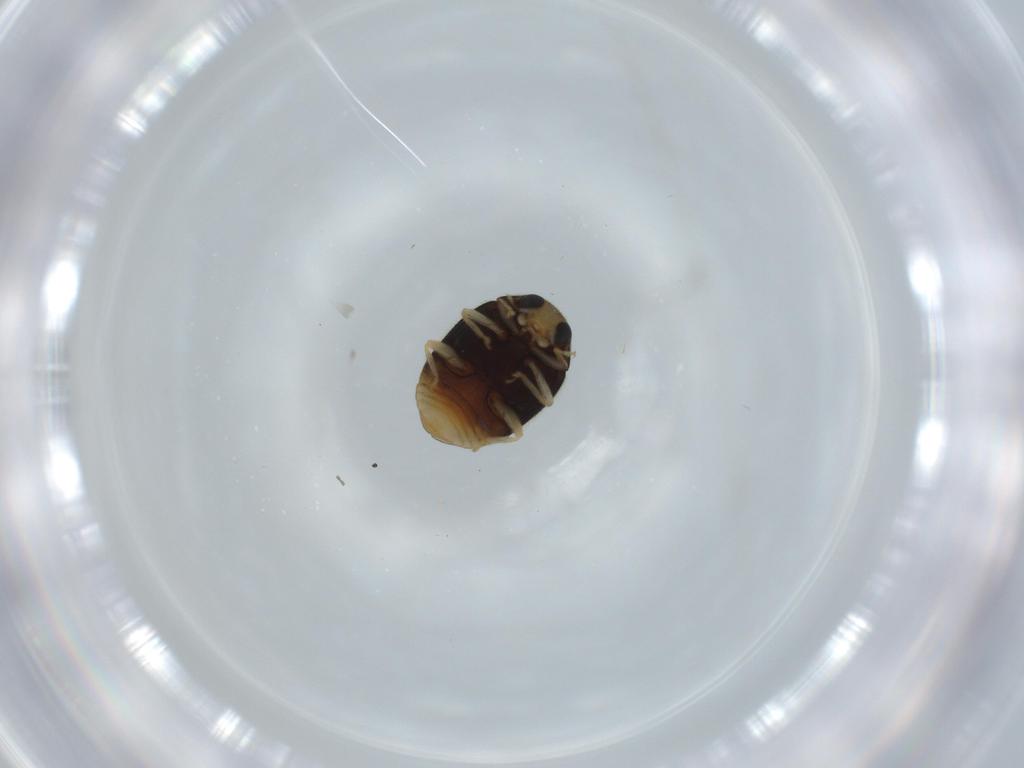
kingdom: Animalia
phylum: Arthropoda
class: Insecta
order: Coleoptera
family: Coccinellidae
